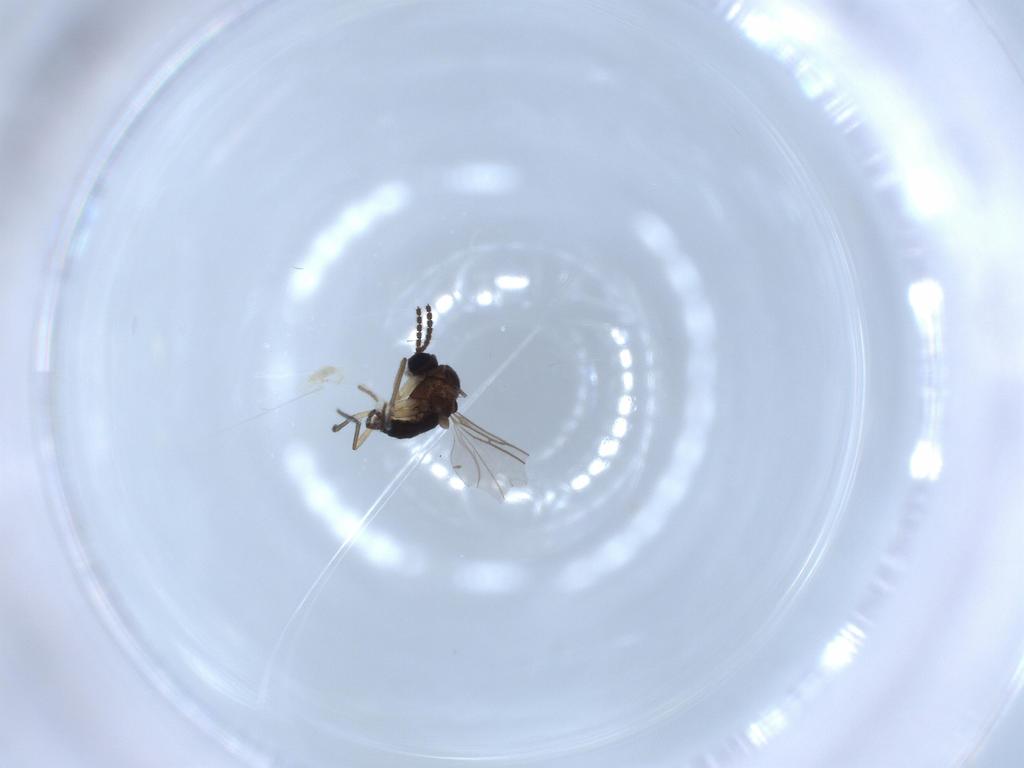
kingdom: Animalia
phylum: Arthropoda
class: Insecta
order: Diptera
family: Sciaridae
